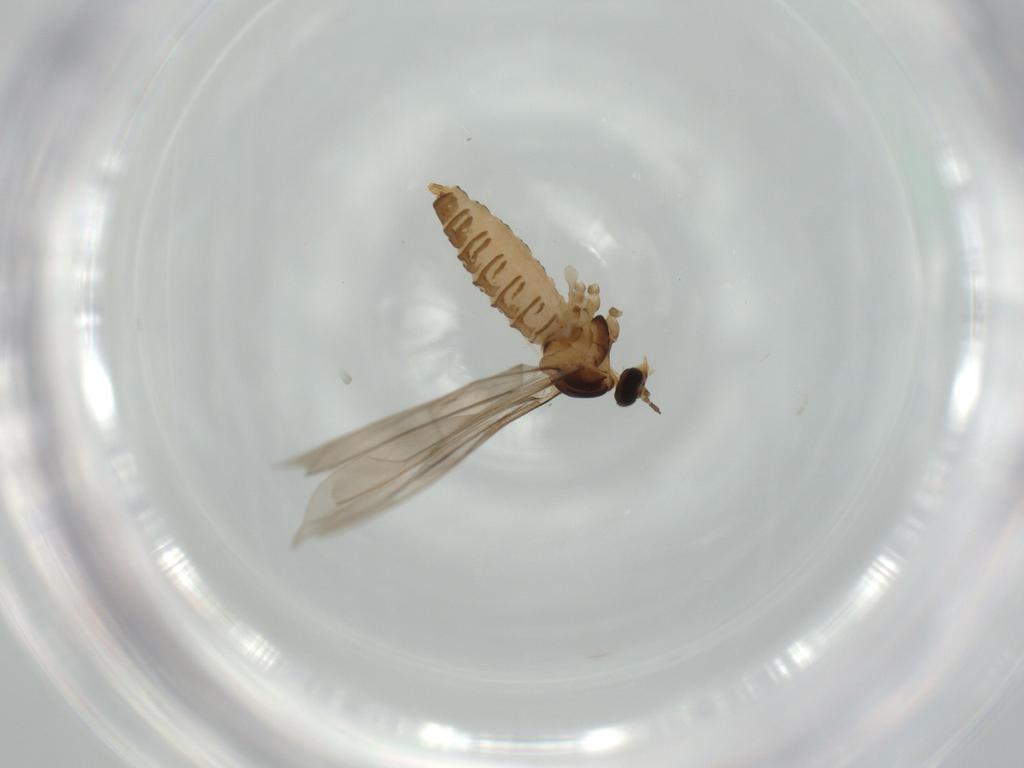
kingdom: Animalia
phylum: Arthropoda
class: Insecta
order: Diptera
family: Cecidomyiidae
